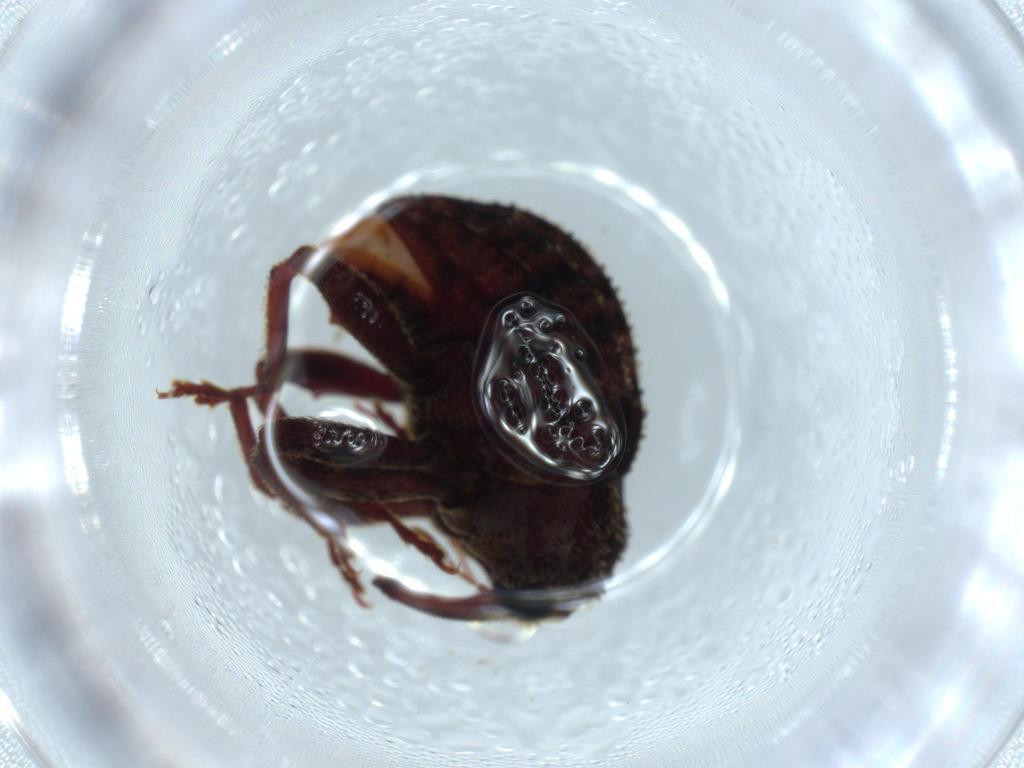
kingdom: Animalia
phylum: Arthropoda
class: Insecta
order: Coleoptera
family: Curculionidae
